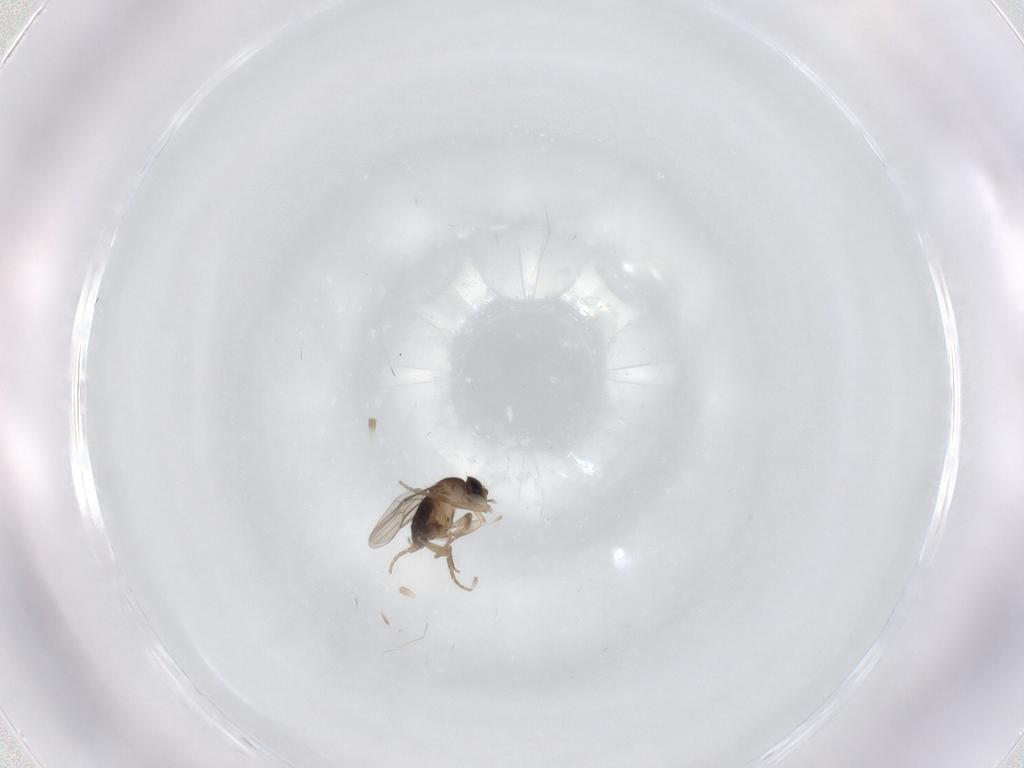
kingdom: Animalia
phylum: Arthropoda
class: Insecta
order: Diptera
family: Phoridae
